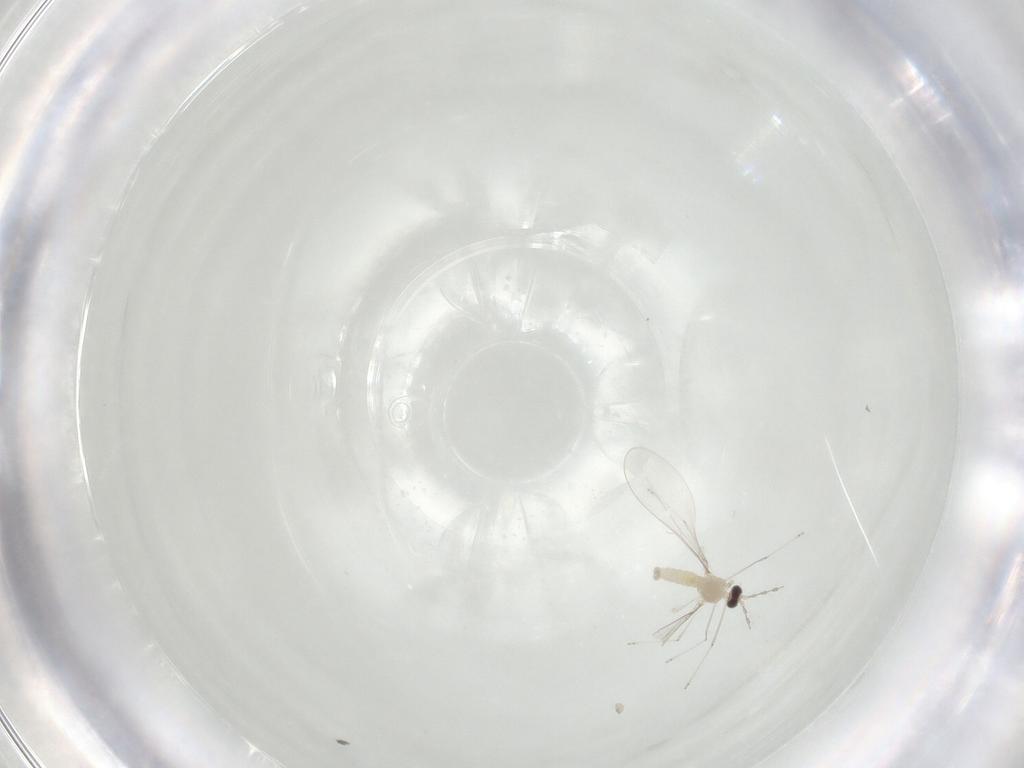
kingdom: Animalia
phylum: Arthropoda
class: Insecta
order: Diptera
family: Cecidomyiidae
